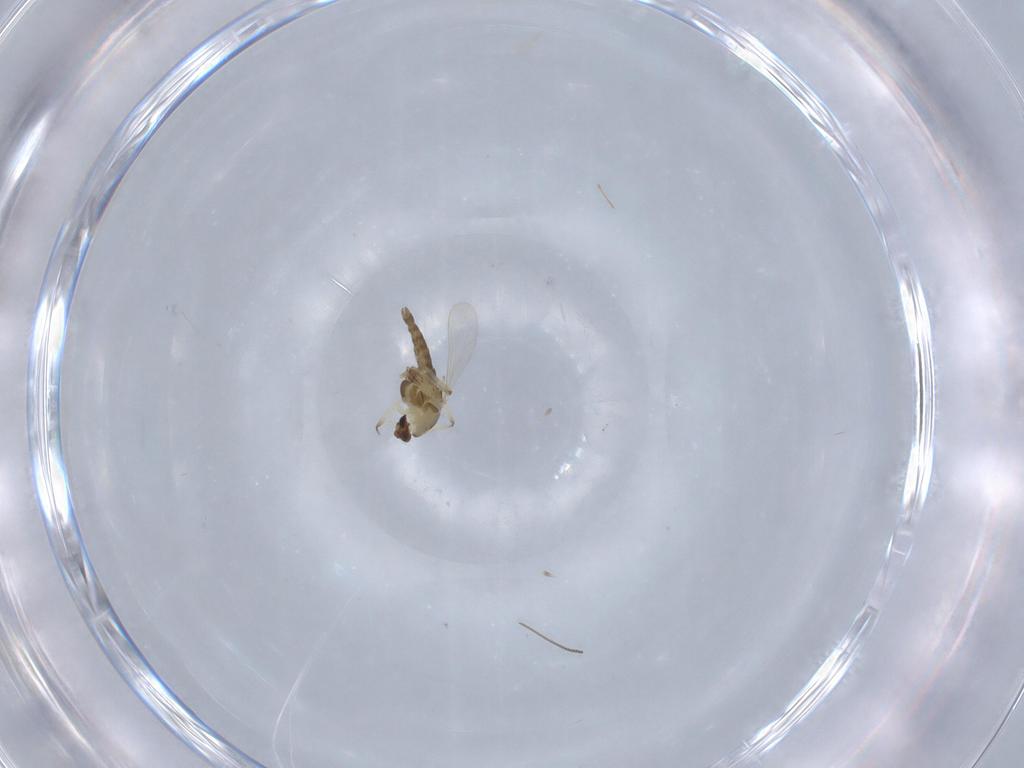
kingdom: Animalia
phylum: Arthropoda
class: Insecta
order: Diptera
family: Chironomidae
